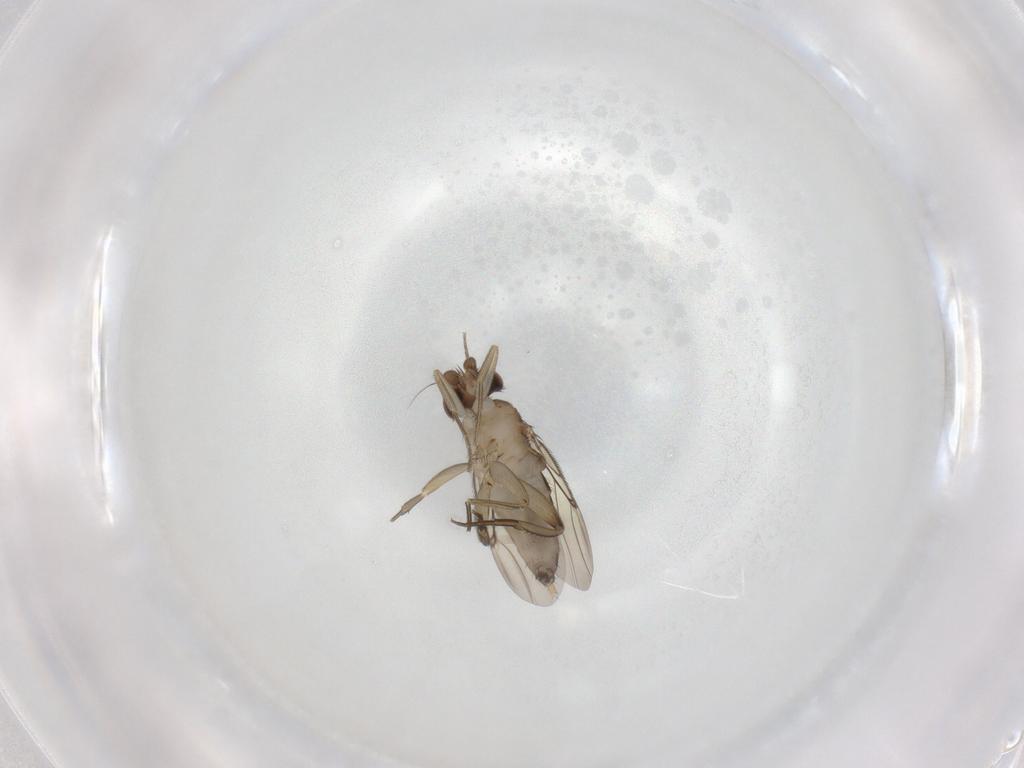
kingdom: Animalia
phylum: Arthropoda
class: Insecta
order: Diptera
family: Phoridae
